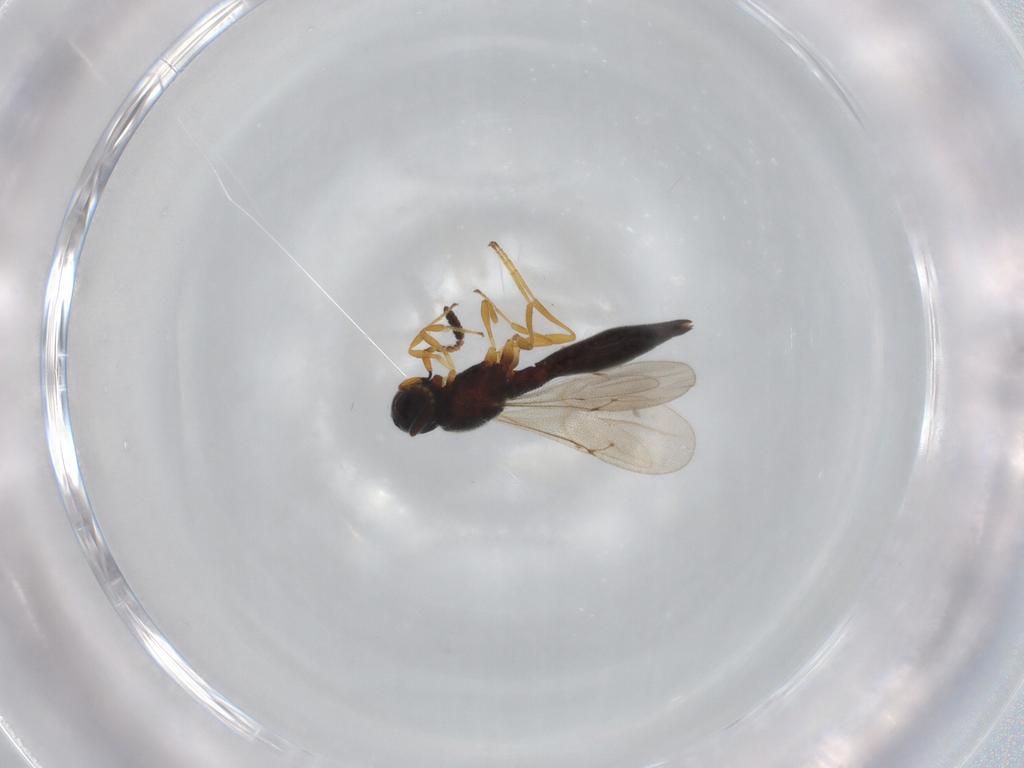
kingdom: Animalia
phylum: Arthropoda
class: Insecta
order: Hymenoptera
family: Scelionidae
